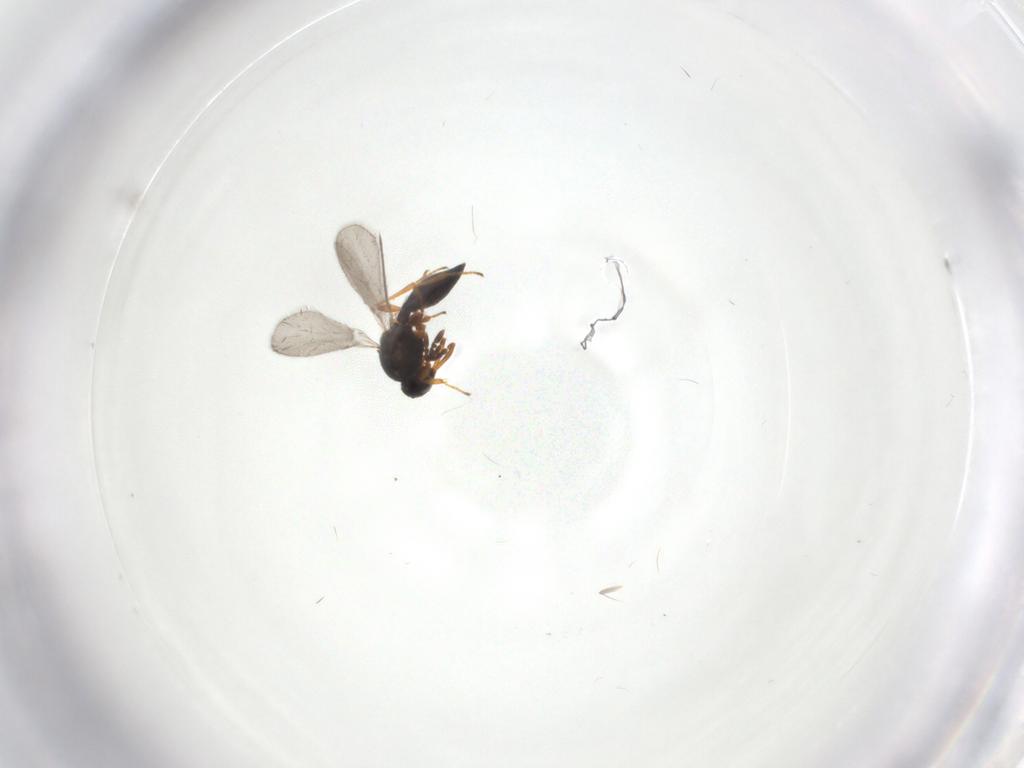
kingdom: Animalia
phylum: Arthropoda
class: Insecta
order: Hymenoptera
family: Platygastridae
